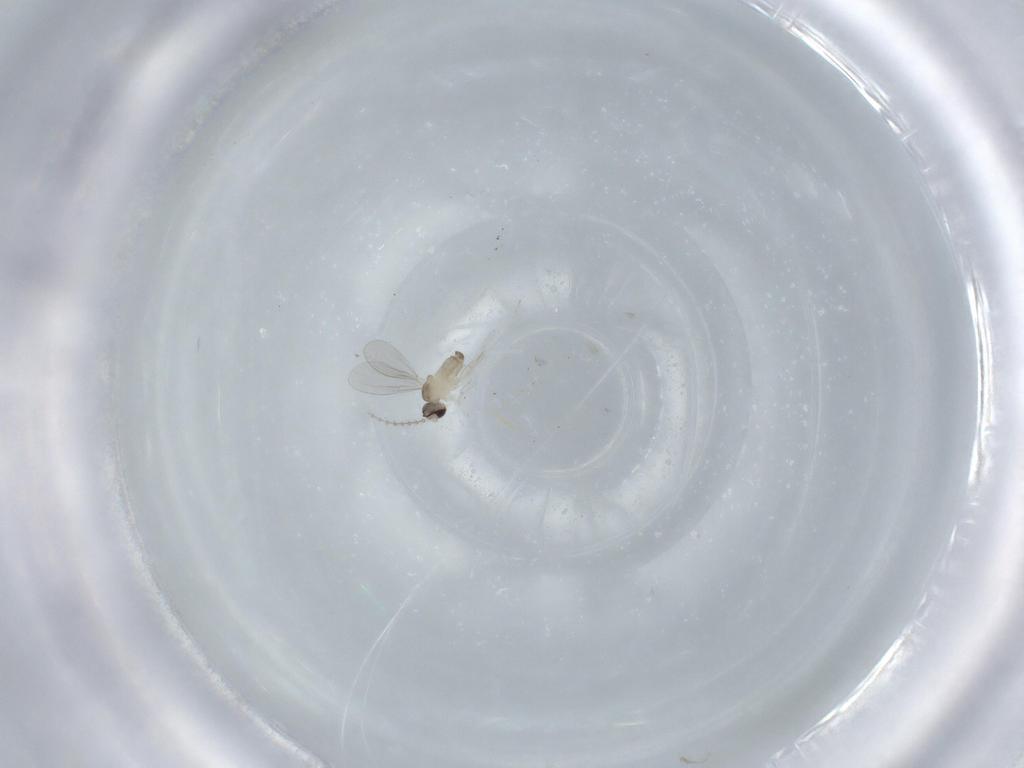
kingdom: Animalia
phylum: Arthropoda
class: Insecta
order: Diptera
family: Cecidomyiidae
